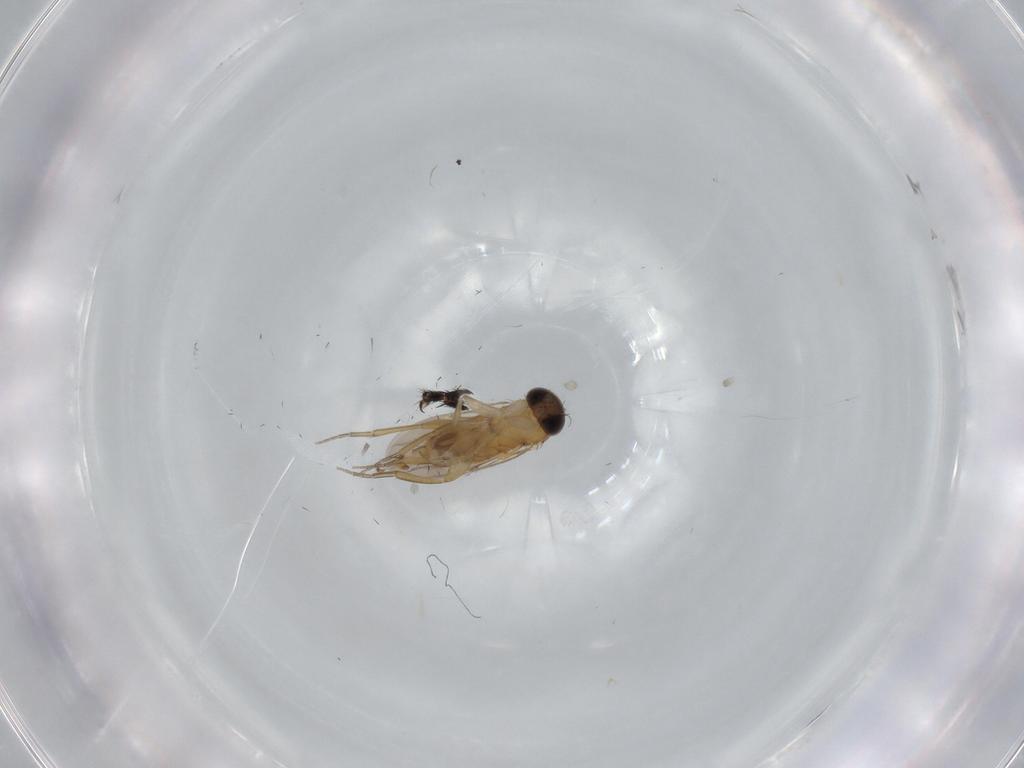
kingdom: Animalia
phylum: Arthropoda
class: Insecta
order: Diptera
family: Phoridae
